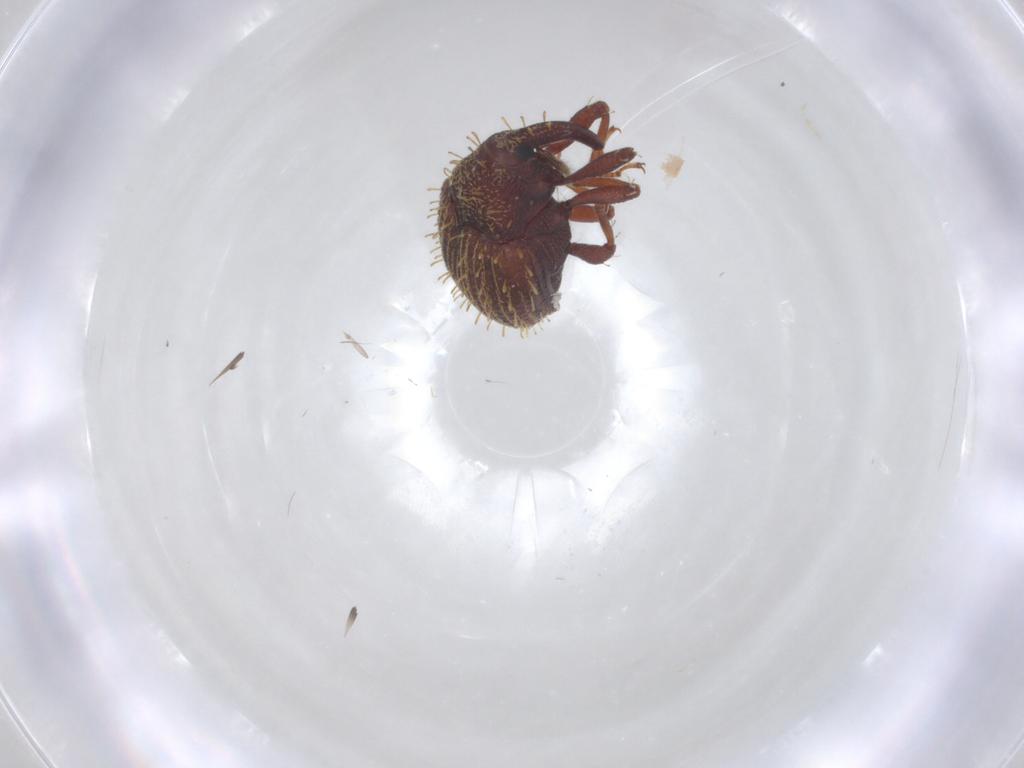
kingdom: Animalia
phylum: Arthropoda
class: Insecta
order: Coleoptera
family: Curculionidae
